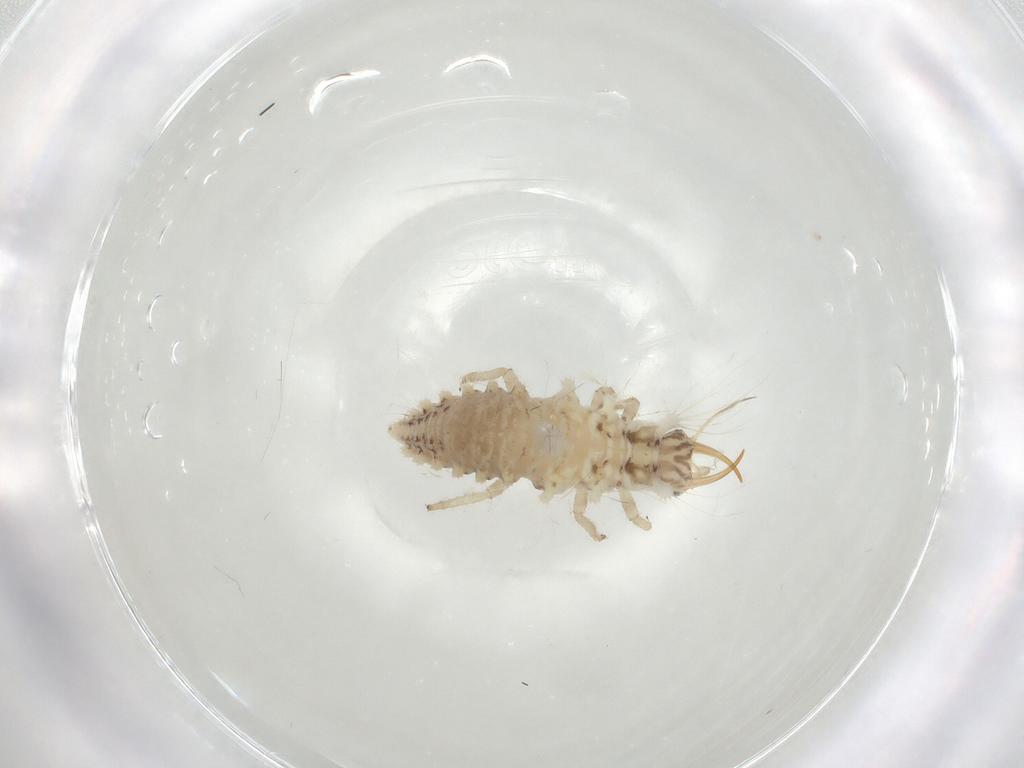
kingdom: Animalia
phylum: Arthropoda
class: Insecta
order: Neuroptera
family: Chrysopidae
